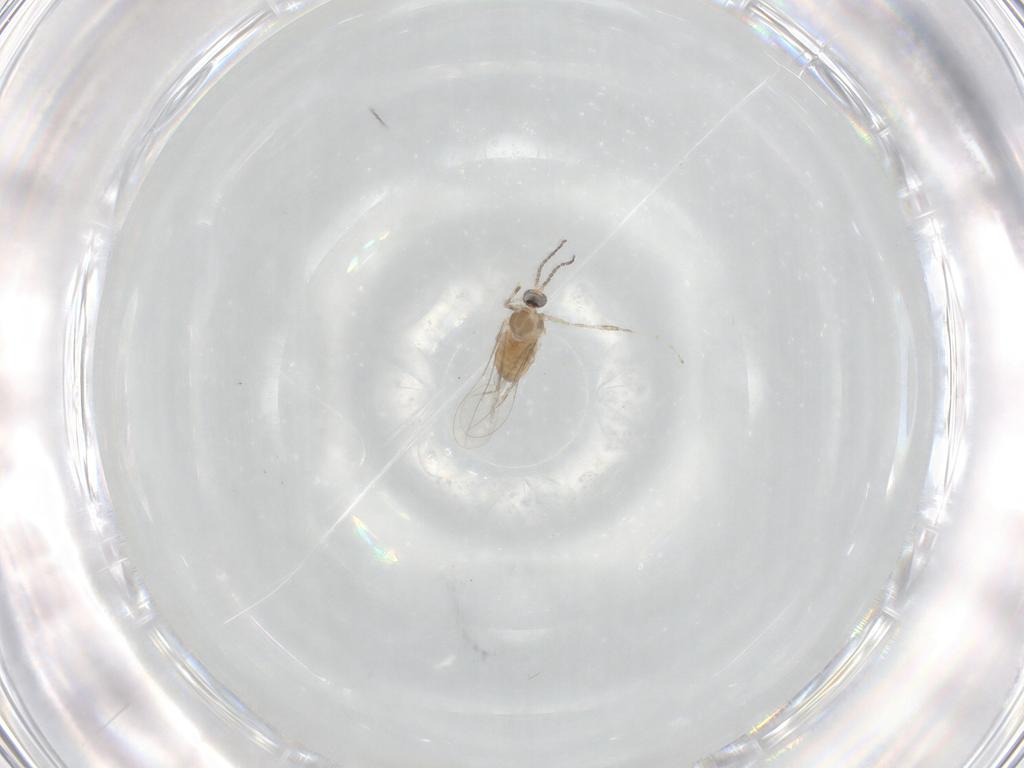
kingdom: Animalia
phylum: Arthropoda
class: Insecta
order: Diptera
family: Cecidomyiidae
